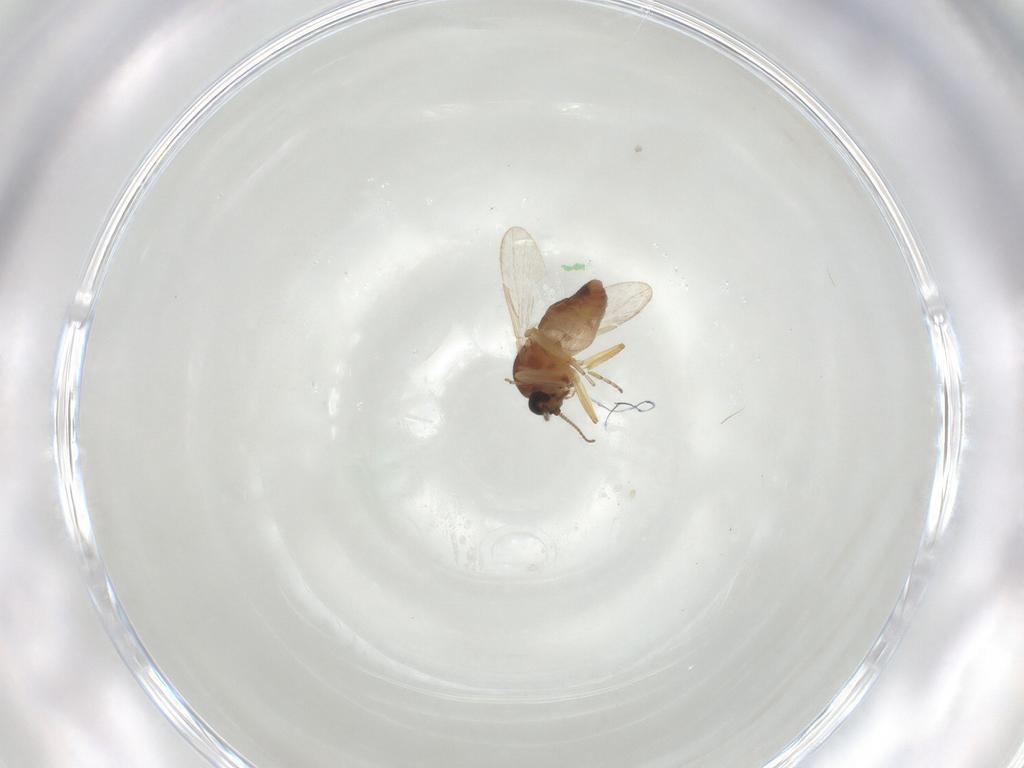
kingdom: Animalia
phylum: Arthropoda
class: Insecta
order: Diptera
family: Ceratopogonidae
